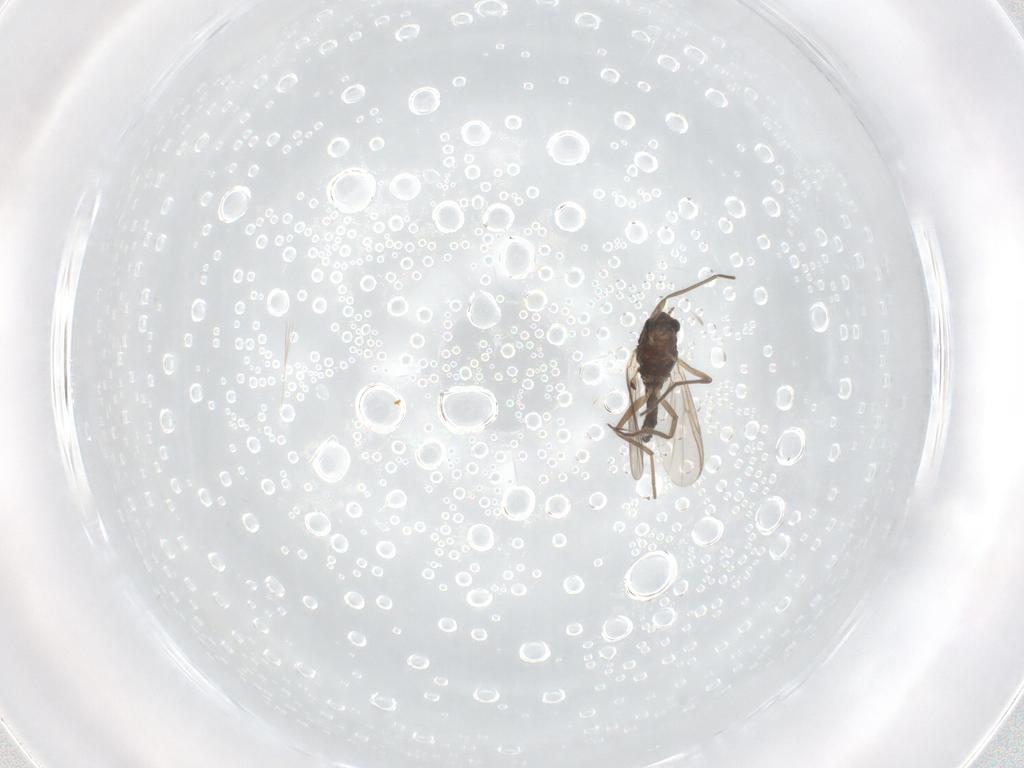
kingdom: Animalia
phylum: Arthropoda
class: Insecta
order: Diptera
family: Chironomidae
